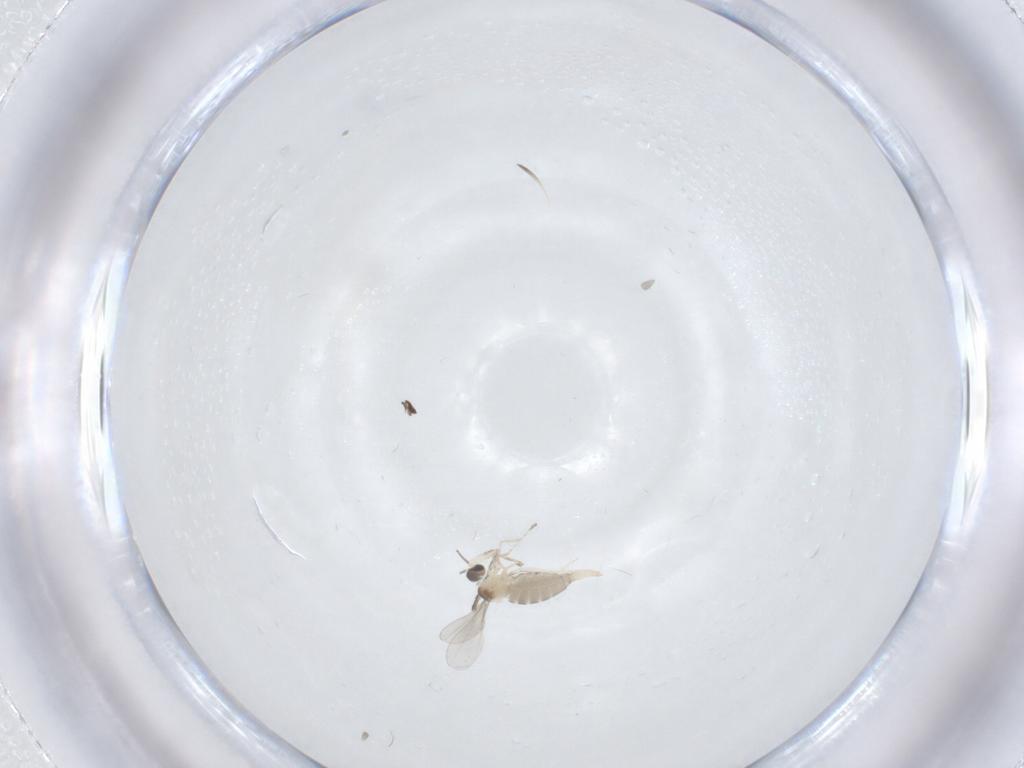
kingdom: Animalia
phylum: Arthropoda
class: Insecta
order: Diptera
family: Cecidomyiidae
